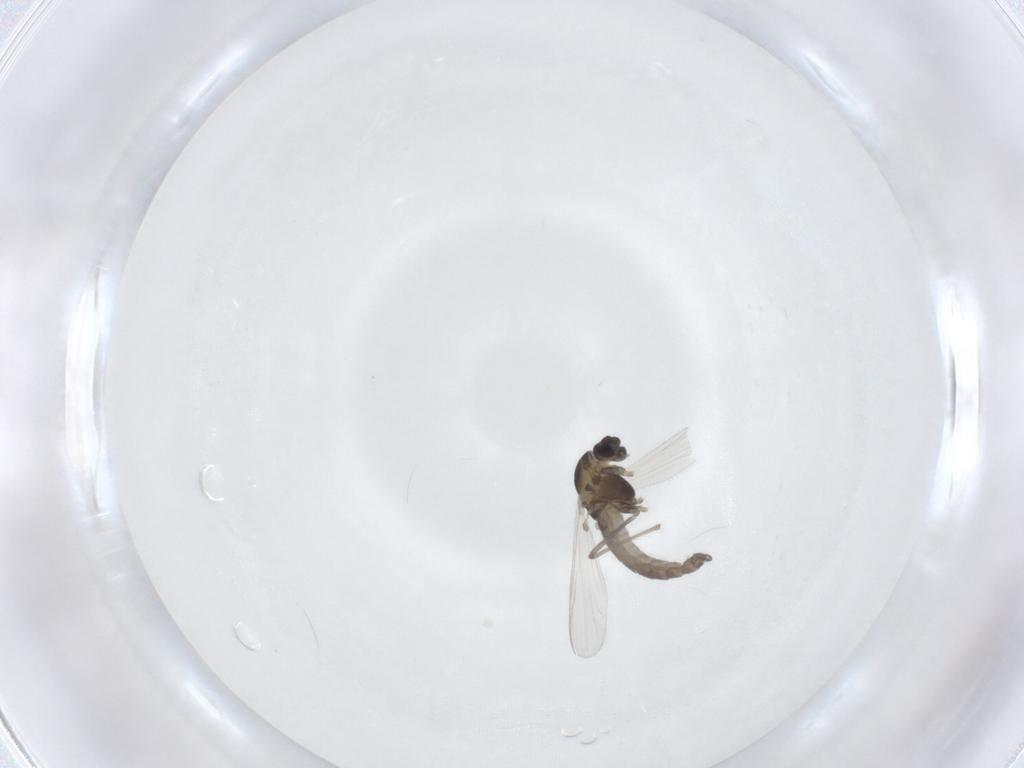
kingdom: Animalia
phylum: Arthropoda
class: Insecta
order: Diptera
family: Chironomidae
